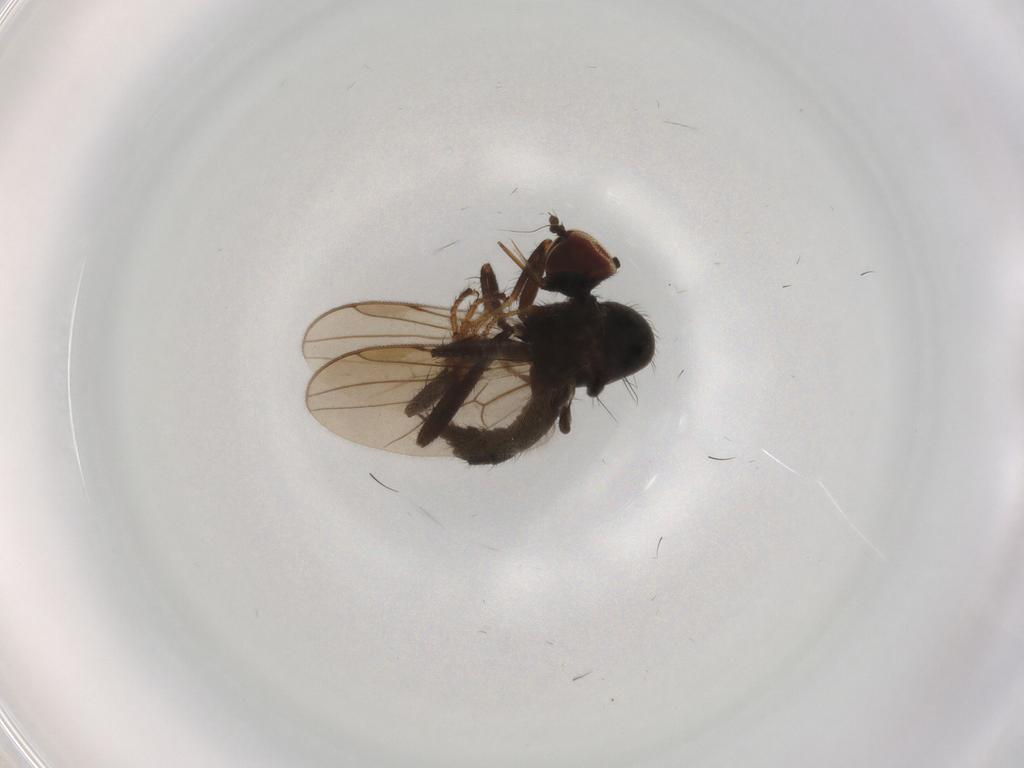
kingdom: Animalia
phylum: Arthropoda
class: Insecta
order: Diptera
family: Hybotidae
